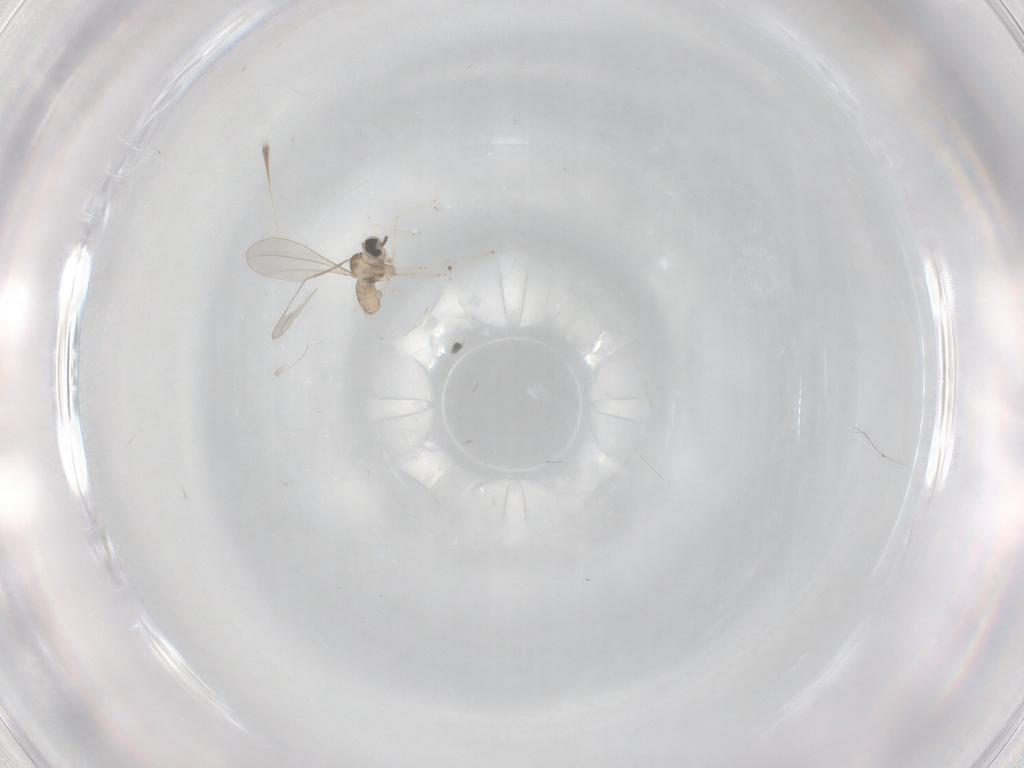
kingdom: Animalia
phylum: Arthropoda
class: Insecta
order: Diptera
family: Cecidomyiidae
